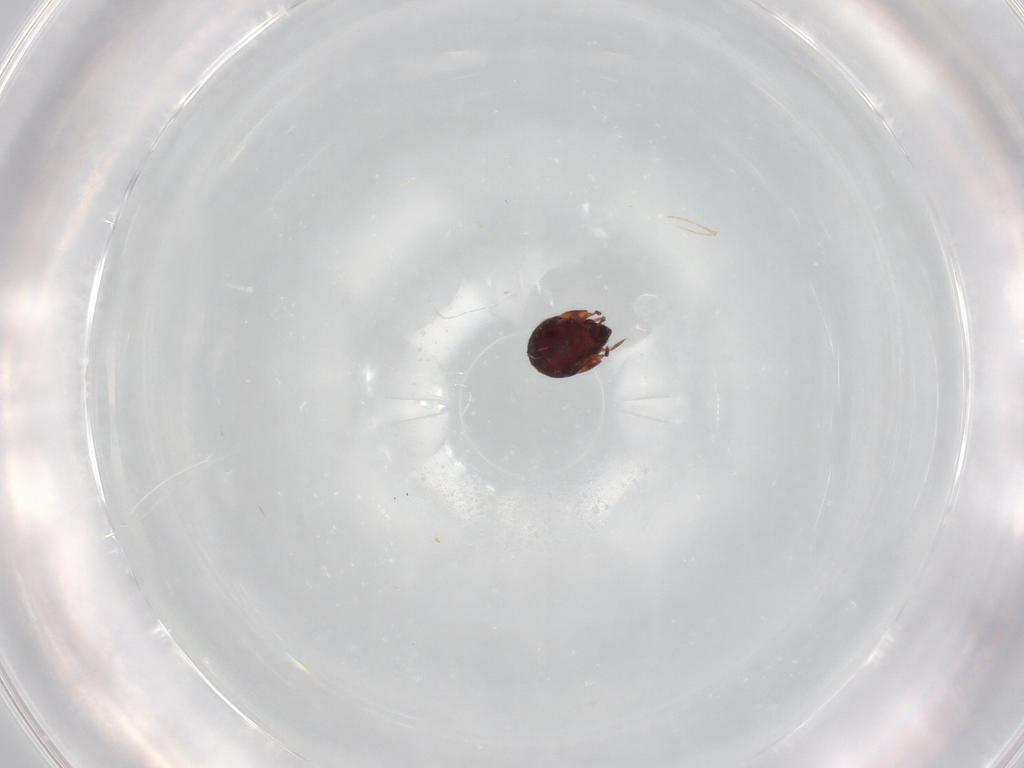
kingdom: Animalia
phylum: Arthropoda
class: Arachnida
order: Sarcoptiformes
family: Humerobatidae
